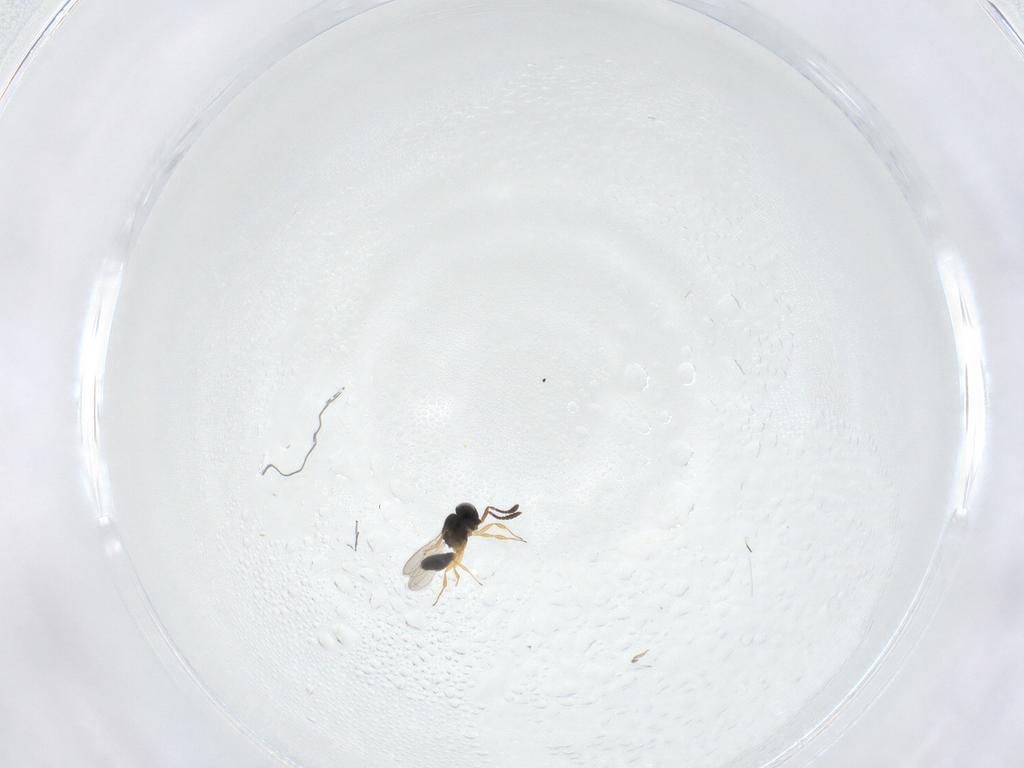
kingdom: Animalia
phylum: Arthropoda
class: Insecta
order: Hymenoptera
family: Scelionidae
